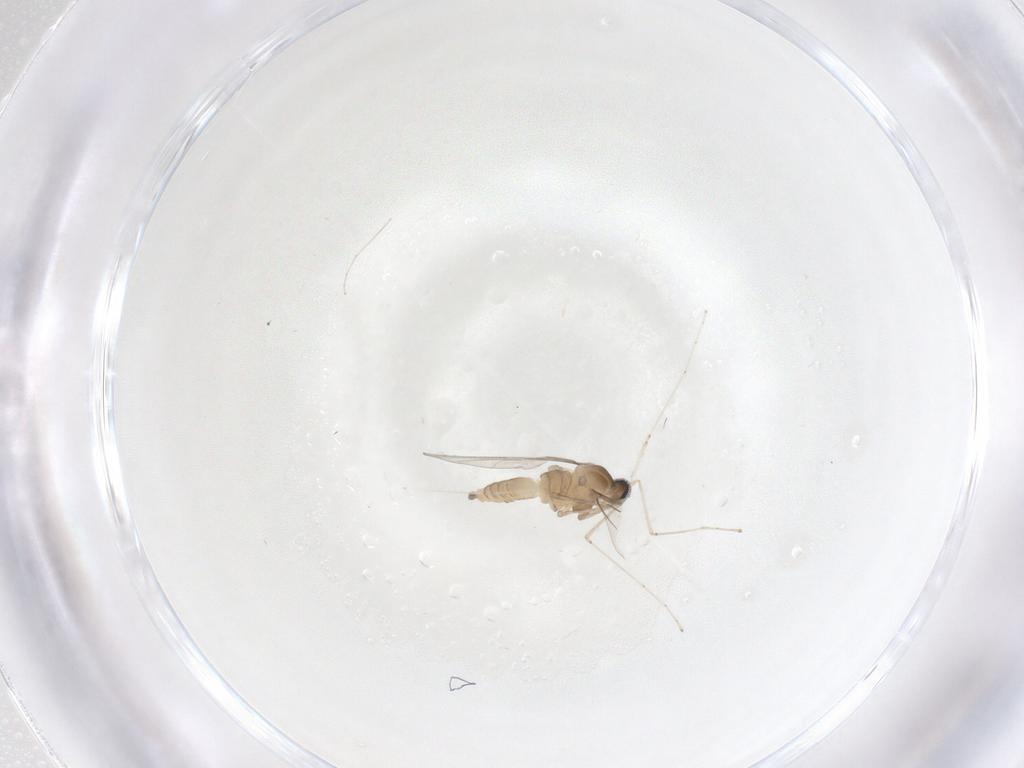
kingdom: Animalia
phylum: Arthropoda
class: Insecta
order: Diptera
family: Cecidomyiidae
